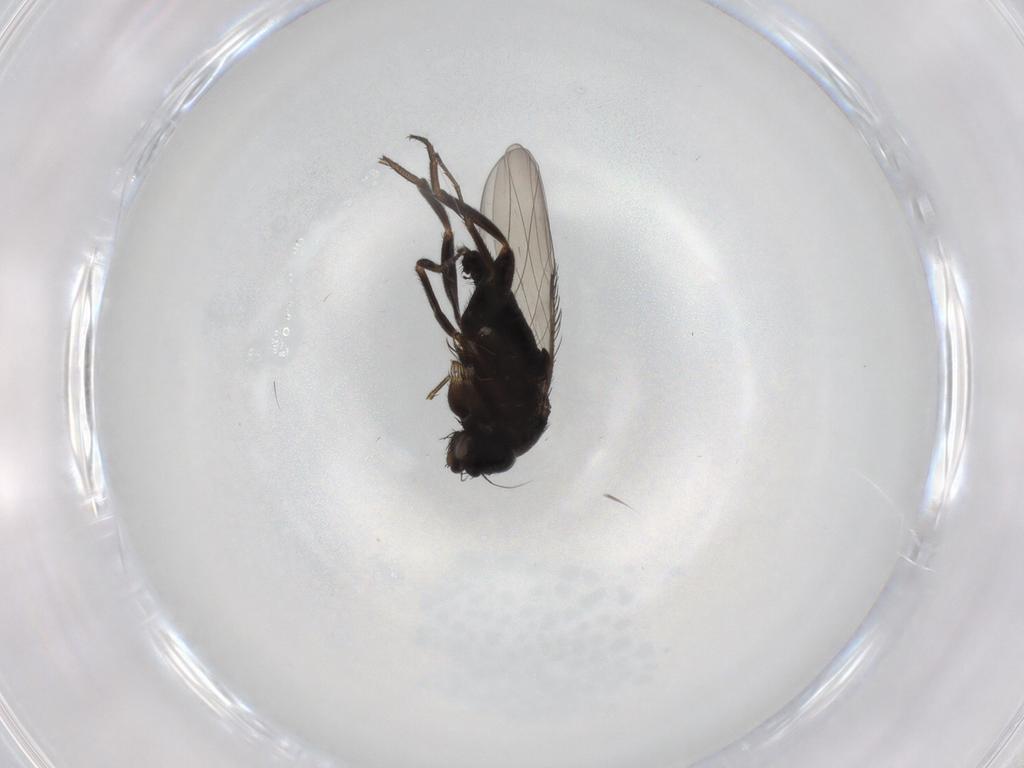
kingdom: Animalia
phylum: Arthropoda
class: Insecta
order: Diptera
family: Phoridae
